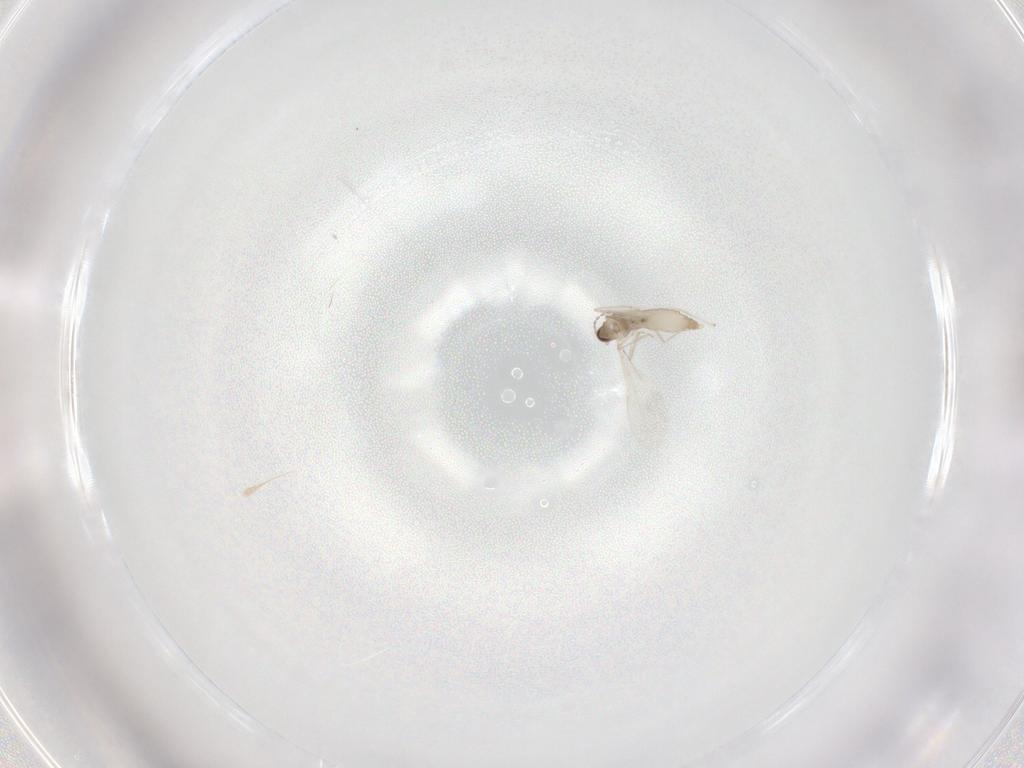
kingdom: Animalia
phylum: Arthropoda
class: Insecta
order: Diptera
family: Cecidomyiidae
